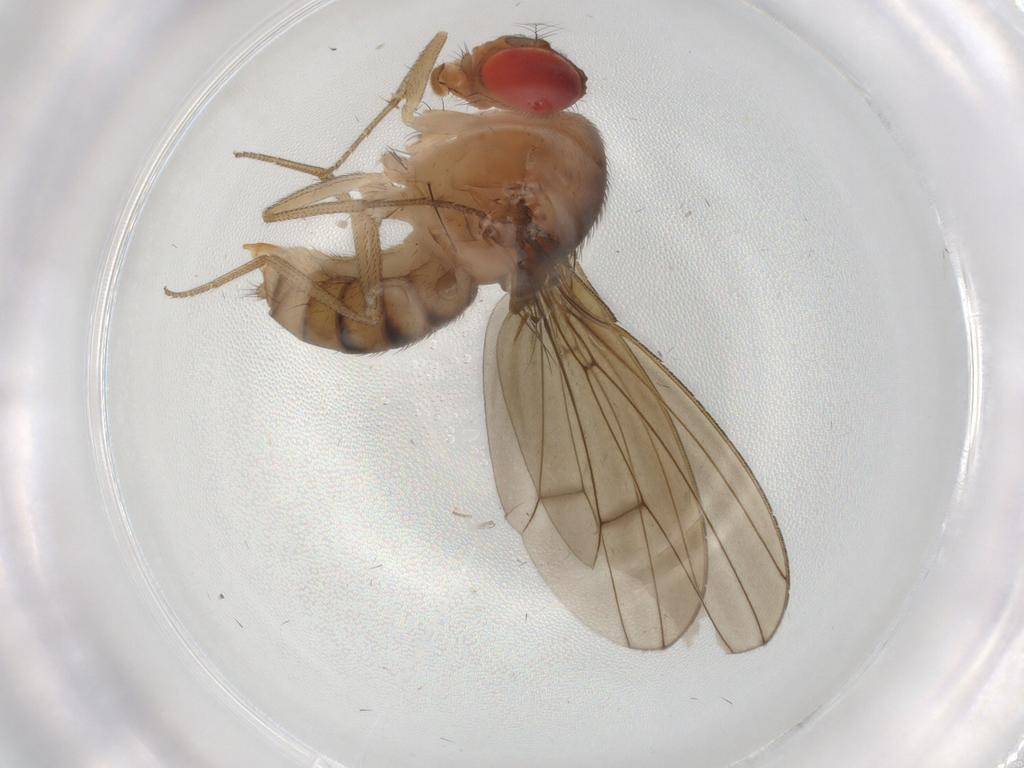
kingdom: Animalia
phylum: Arthropoda
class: Insecta
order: Diptera
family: Drosophilidae
